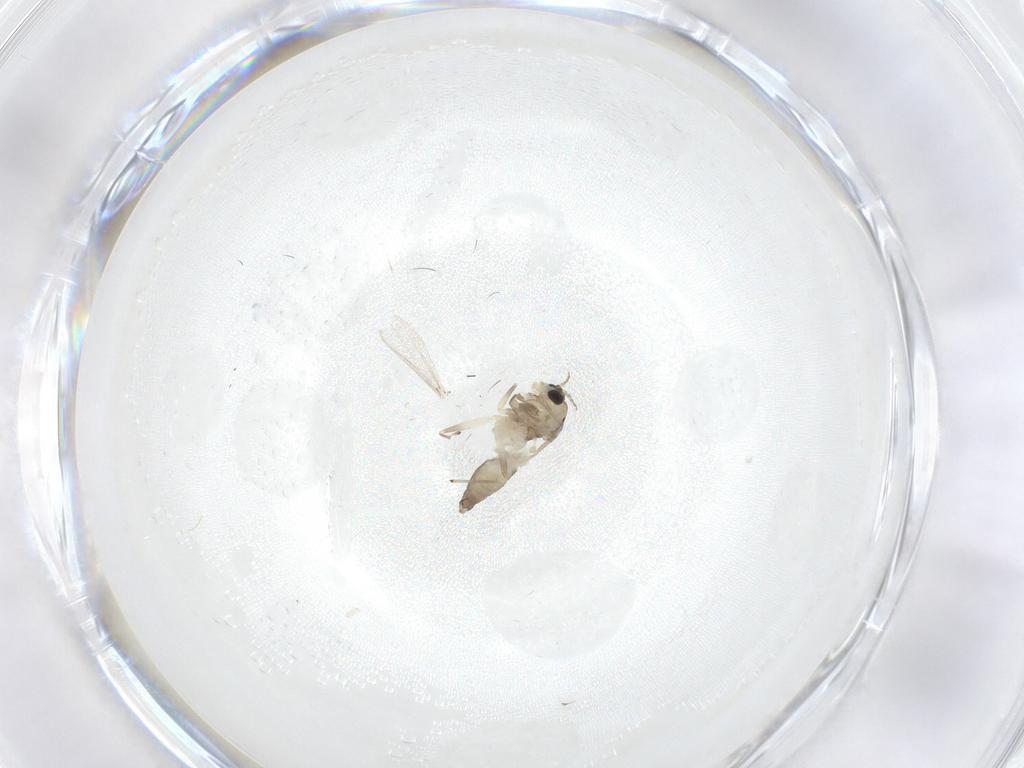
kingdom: Animalia
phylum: Arthropoda
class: Insecta
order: Diptera
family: Chironomidae
